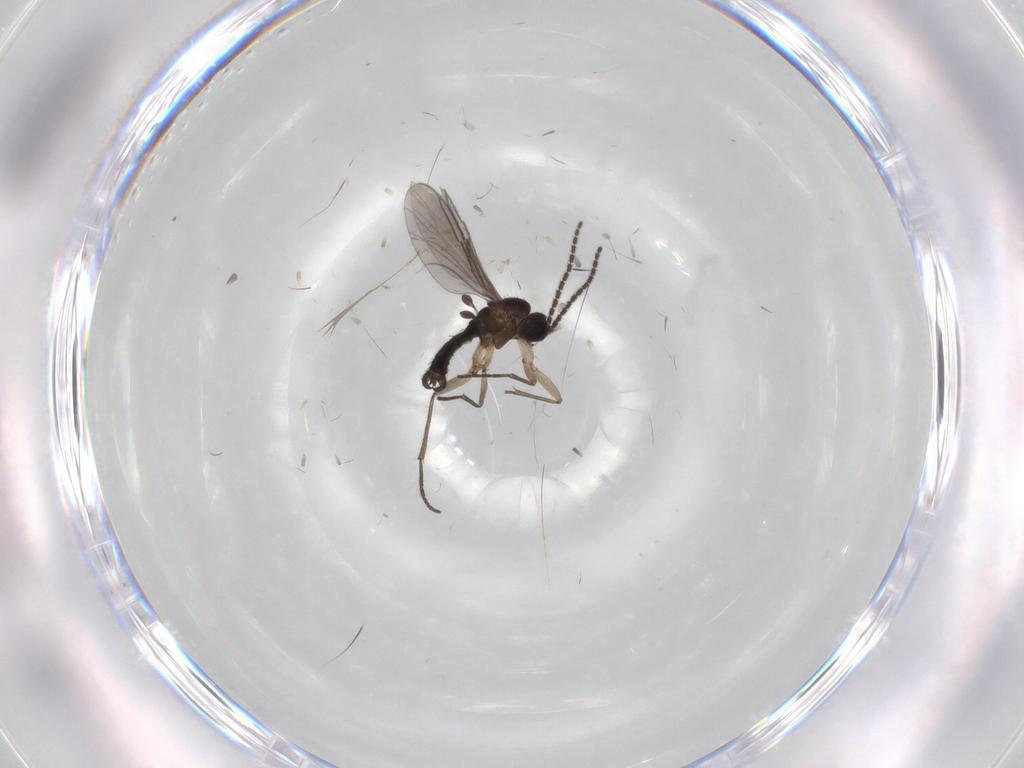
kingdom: Animalia
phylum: Arthropoda
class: Insecta
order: Diptera
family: Sciaridae
